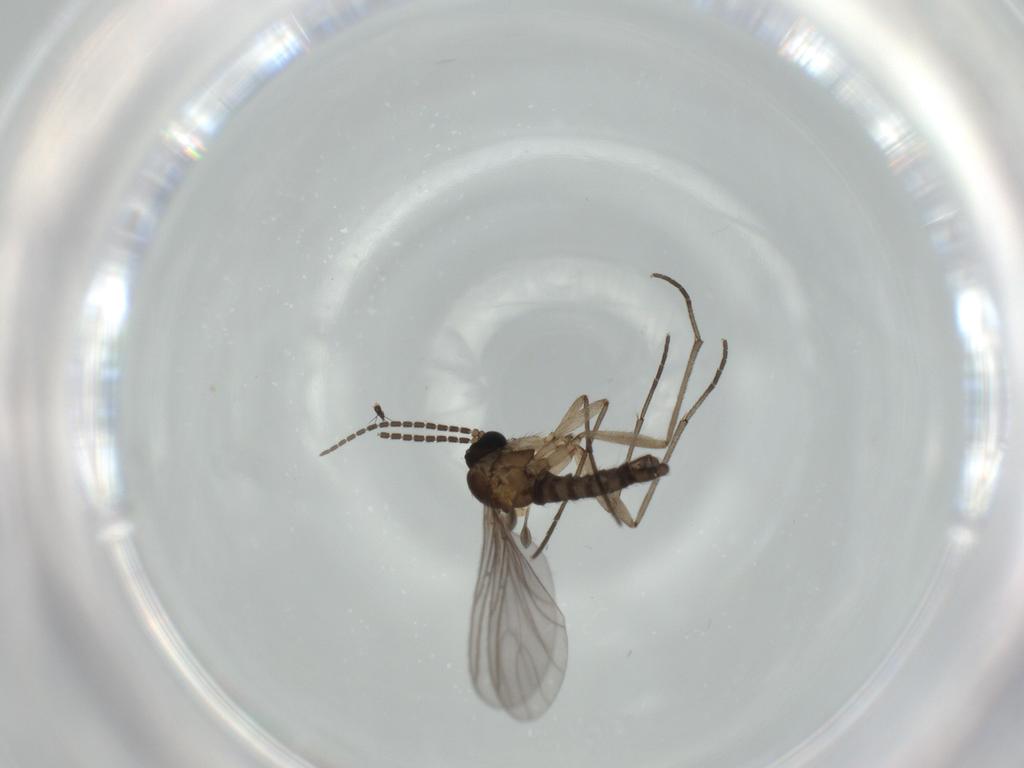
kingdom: Animalia
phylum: Arthropoda
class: Insecta
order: Diptera
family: Sciaridae
